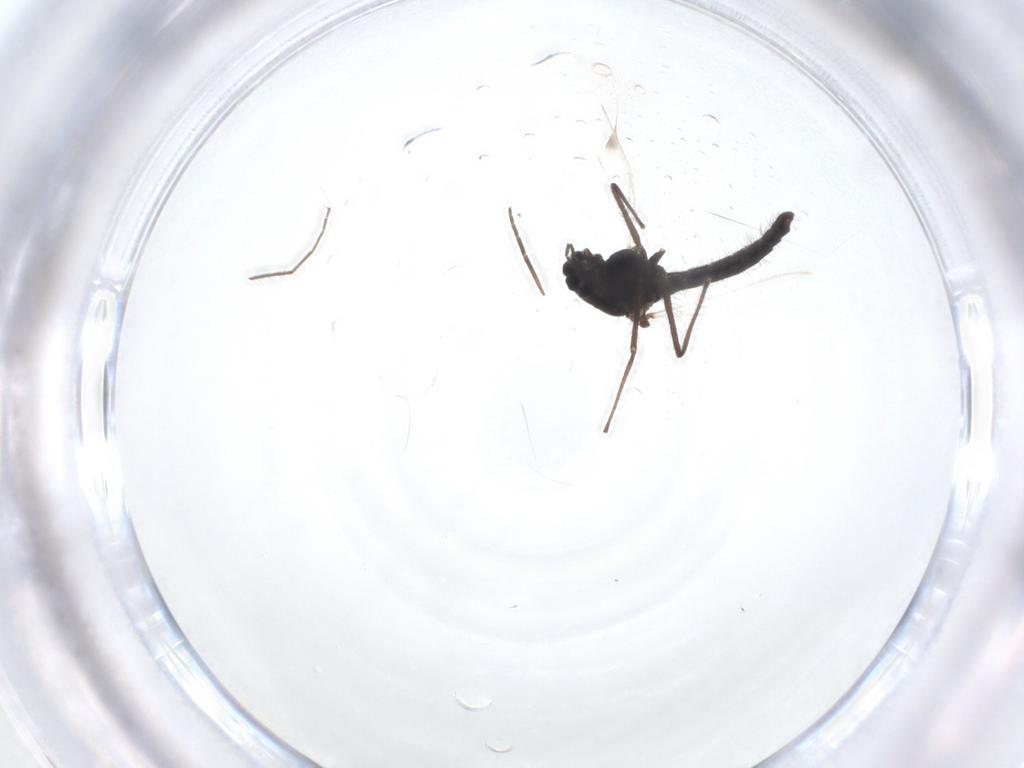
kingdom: Animalia
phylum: Arthropoda
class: Insecta
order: Diptera
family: Chironomidae
